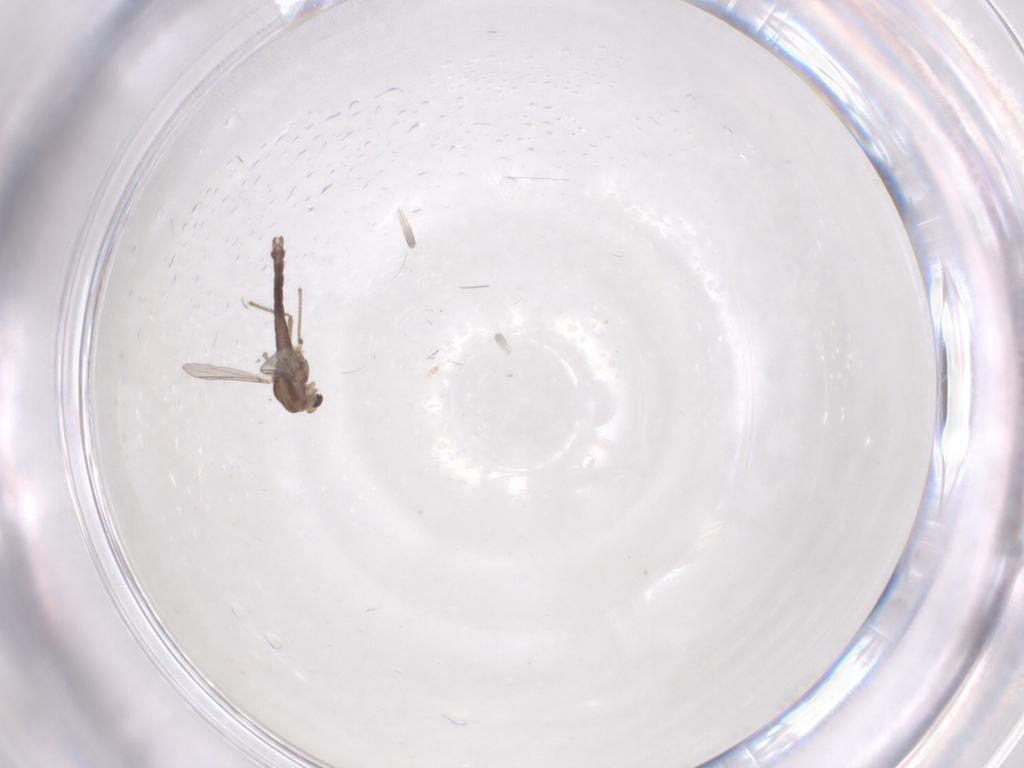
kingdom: Animalia
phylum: Arthropoda
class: Insecta
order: Diptera
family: Chironomidae
